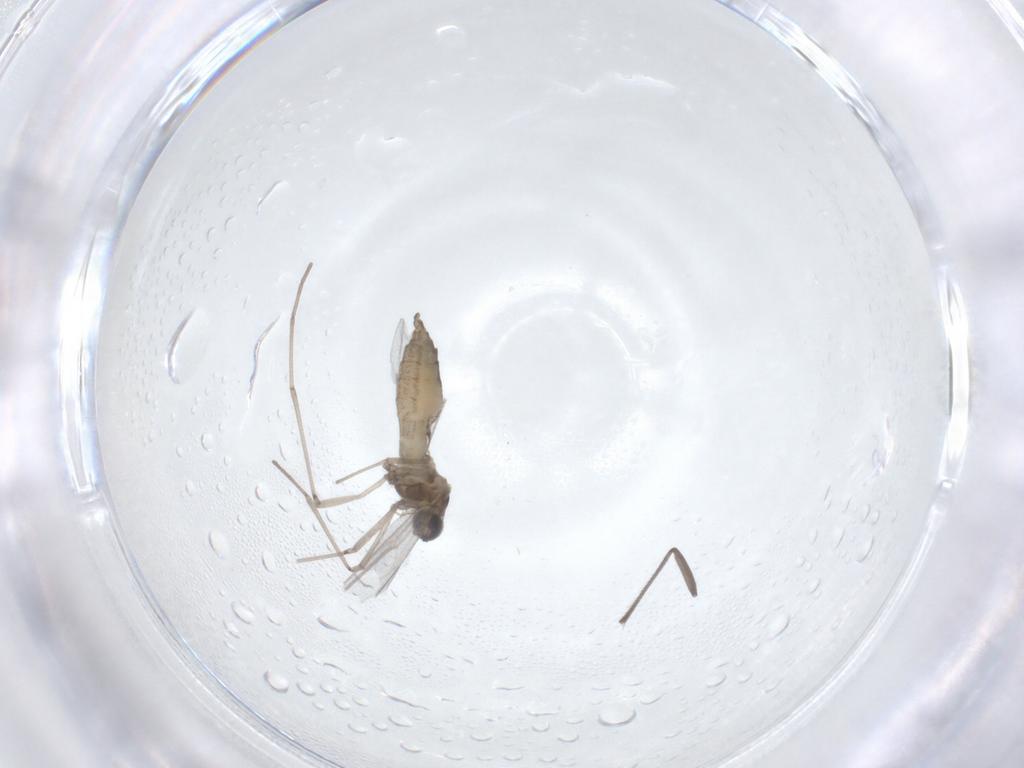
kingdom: Animalia
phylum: Arthropoda
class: Insecta
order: Diptera
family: Cecidomyiidae
